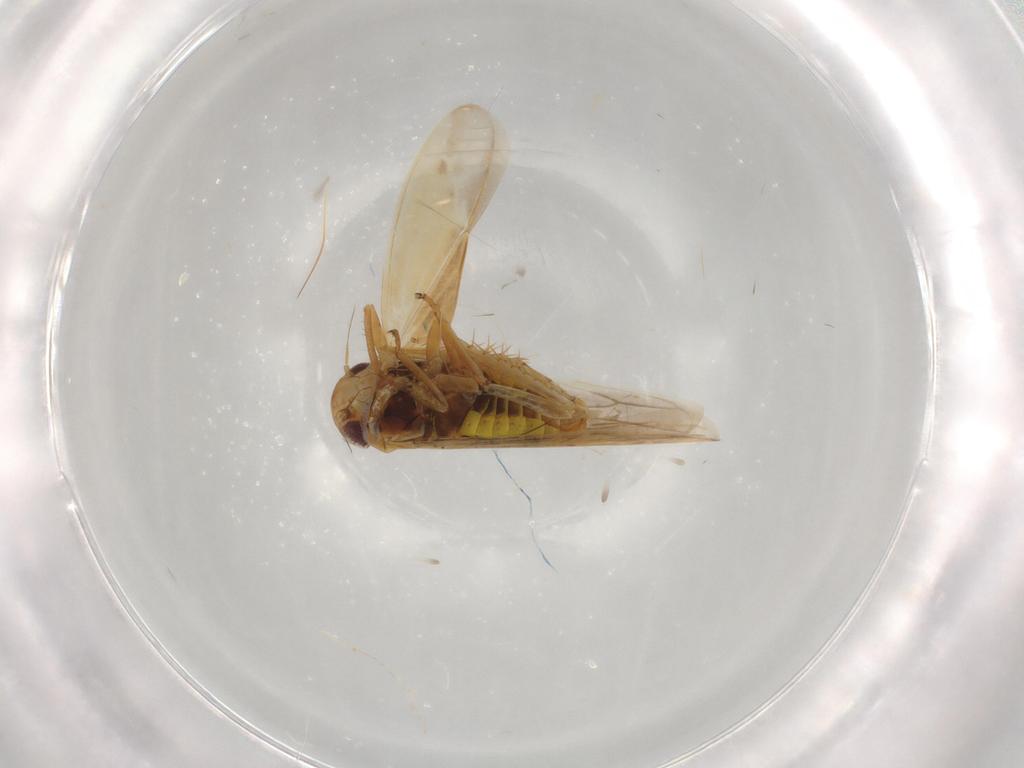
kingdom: Animalia
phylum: Arthropoda
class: Insecta
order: Hemiptera
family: Cicadellidae
